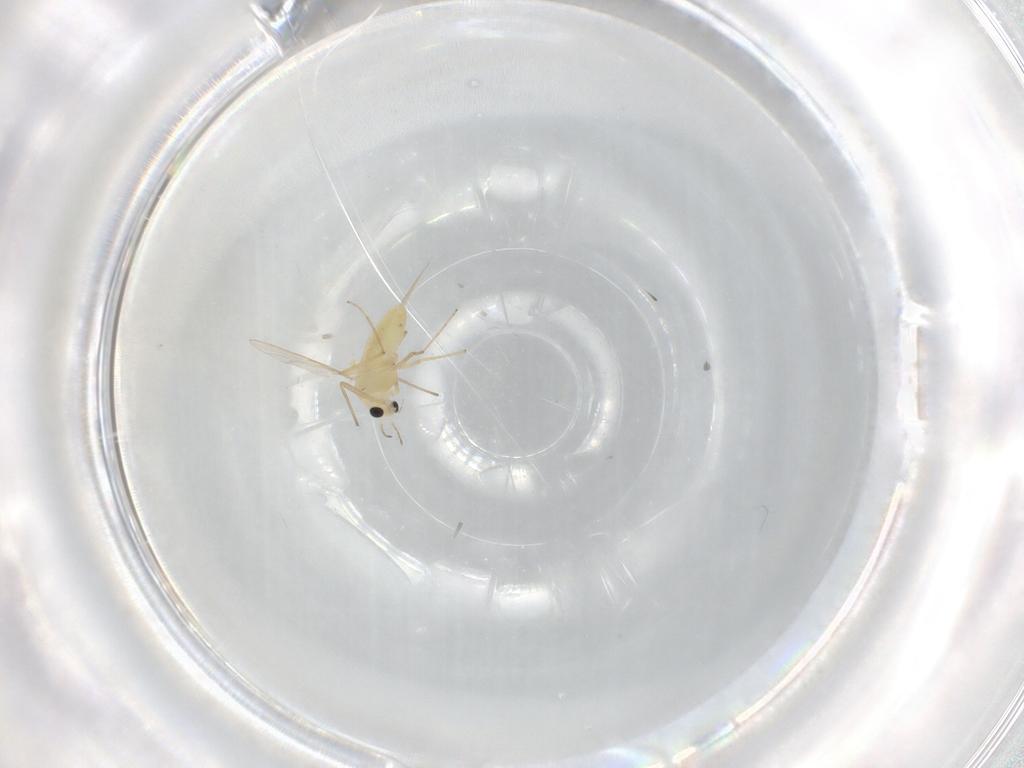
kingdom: Animalia
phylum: Arthropoda
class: Insecta
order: Diptera
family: Chironomidae
